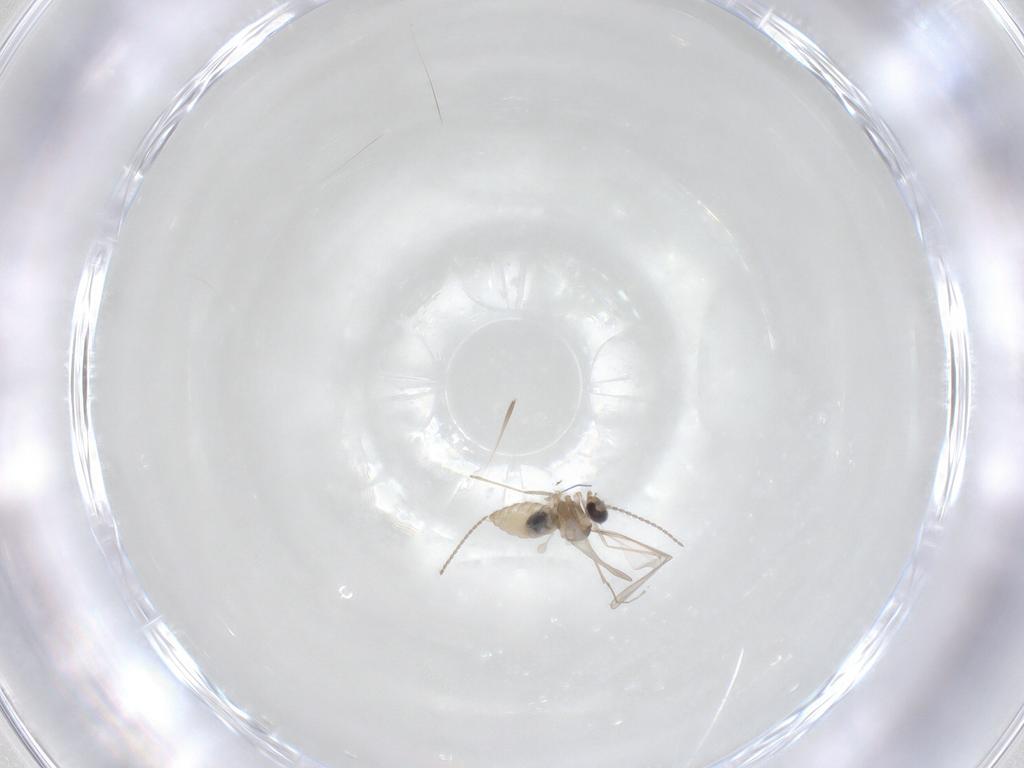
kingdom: Animalia
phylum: Arthropoda
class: Insecta
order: Diptera
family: Cecidomyiidae
